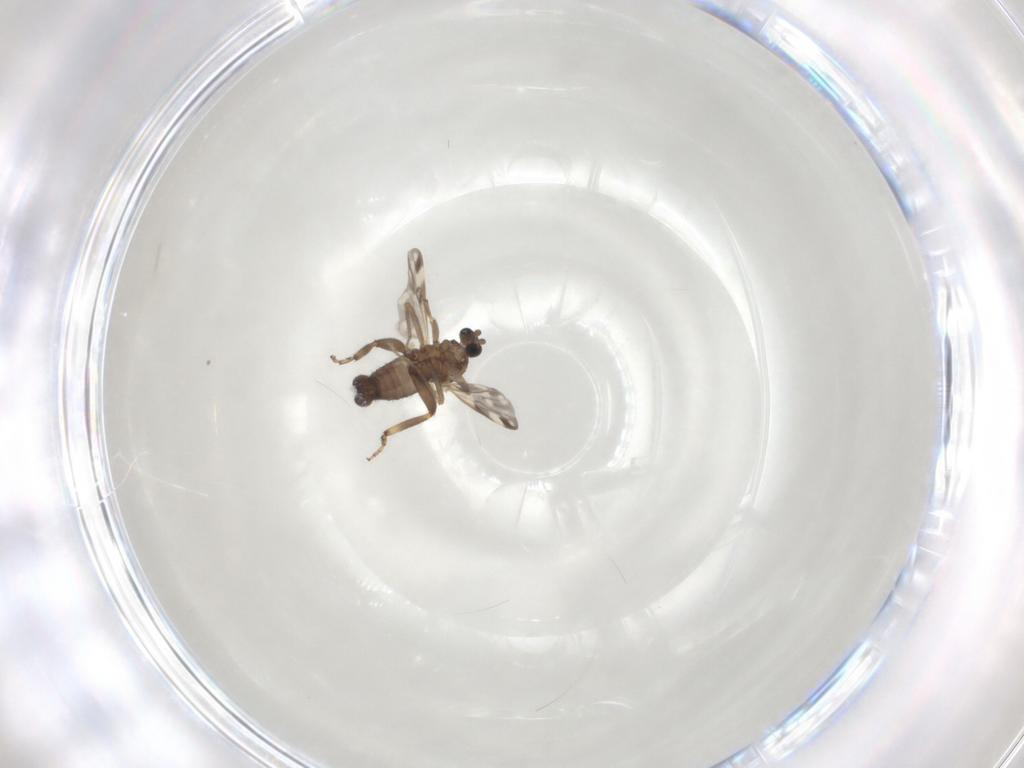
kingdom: Animalia
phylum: Arthropoda
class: Insecta
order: Diptera
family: Ceratopogonidae
